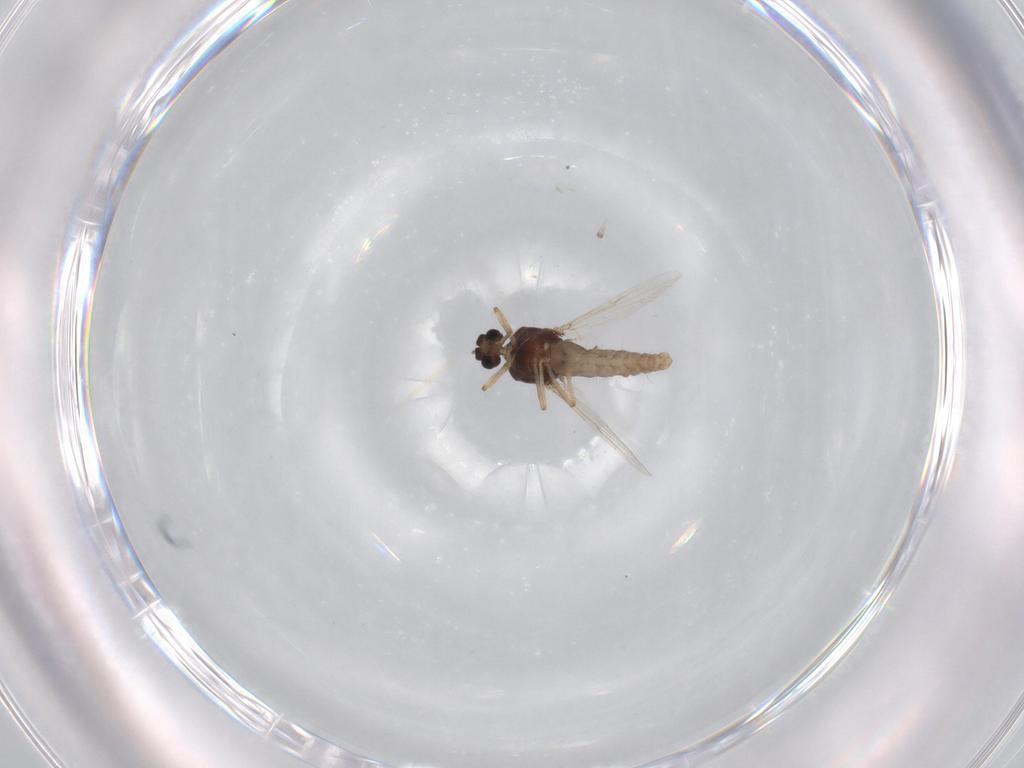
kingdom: Animalia
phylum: Arthropoda
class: Insecta
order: Diptera
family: Ceratopogonidae
